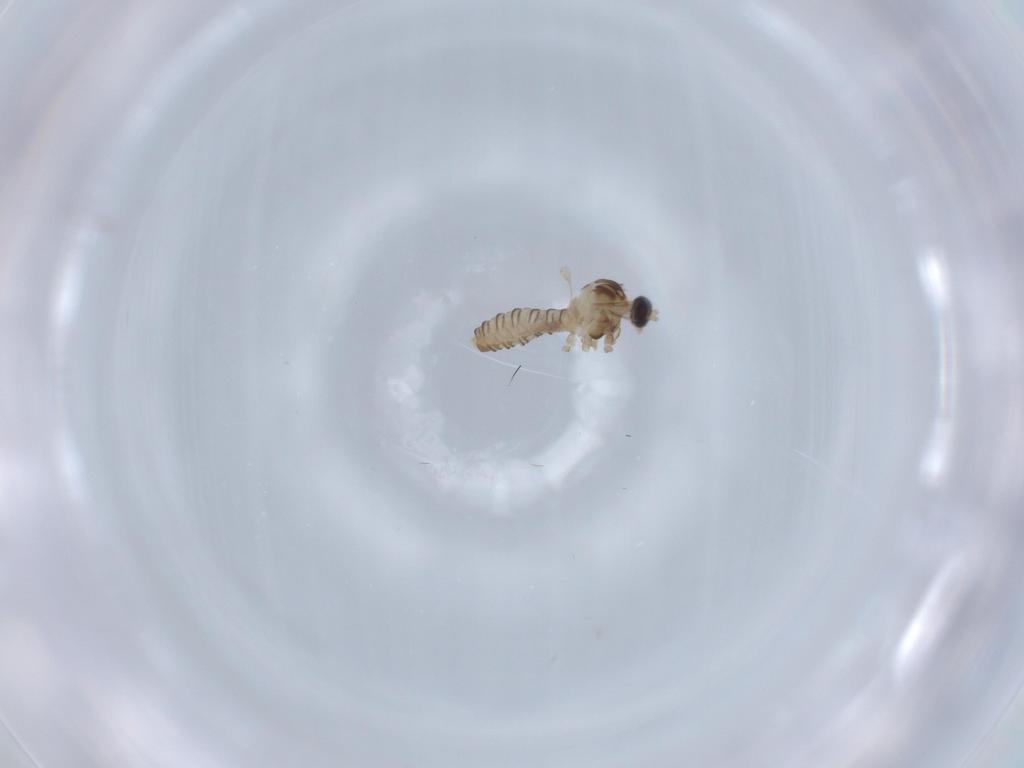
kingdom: Animalia
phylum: Arthropoda
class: Insecta
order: Diptera
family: Cecidomyiidae
